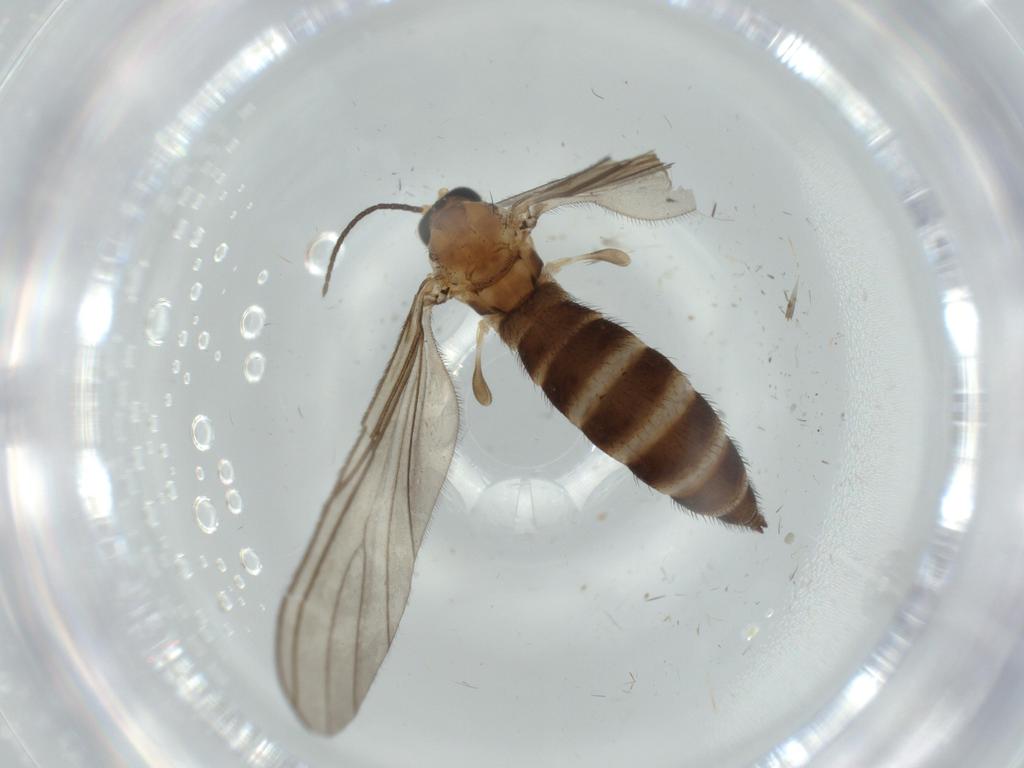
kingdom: Animalia
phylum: Arthropoda
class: Insecta
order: Diptera
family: Sciaridae
